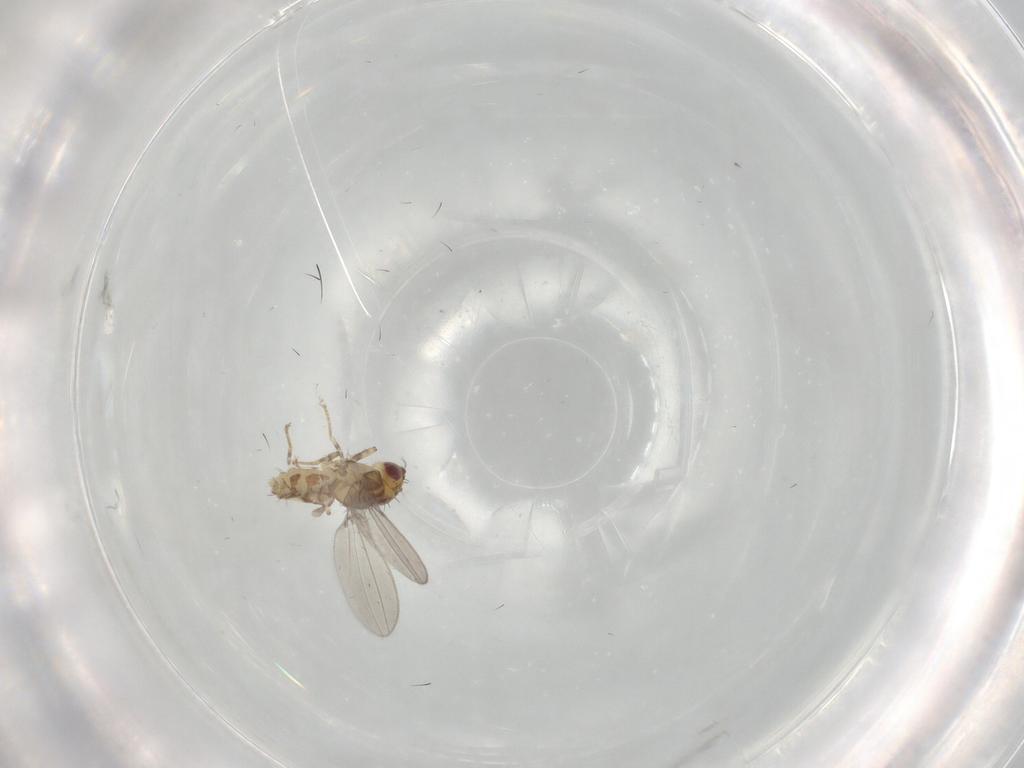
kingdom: Animalia
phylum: Arthropoda
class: Insecta
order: Diptera
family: Asteiidae
